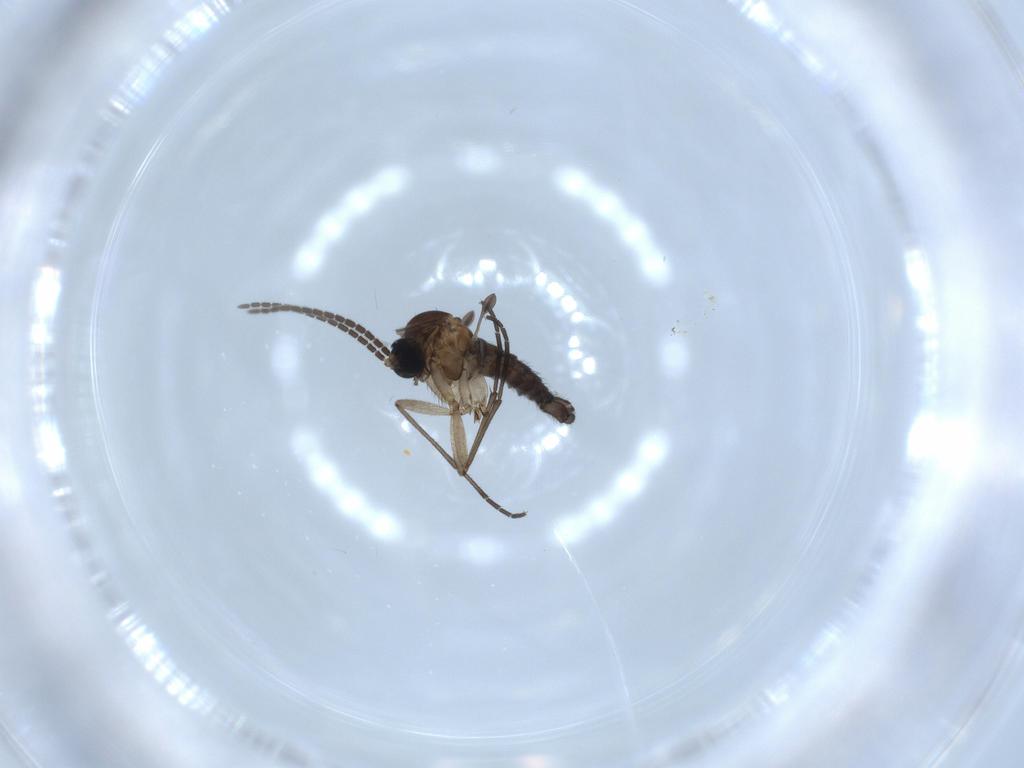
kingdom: Animalia
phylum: Arthropoda
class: Insecta
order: Diptera
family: Sciaridae
